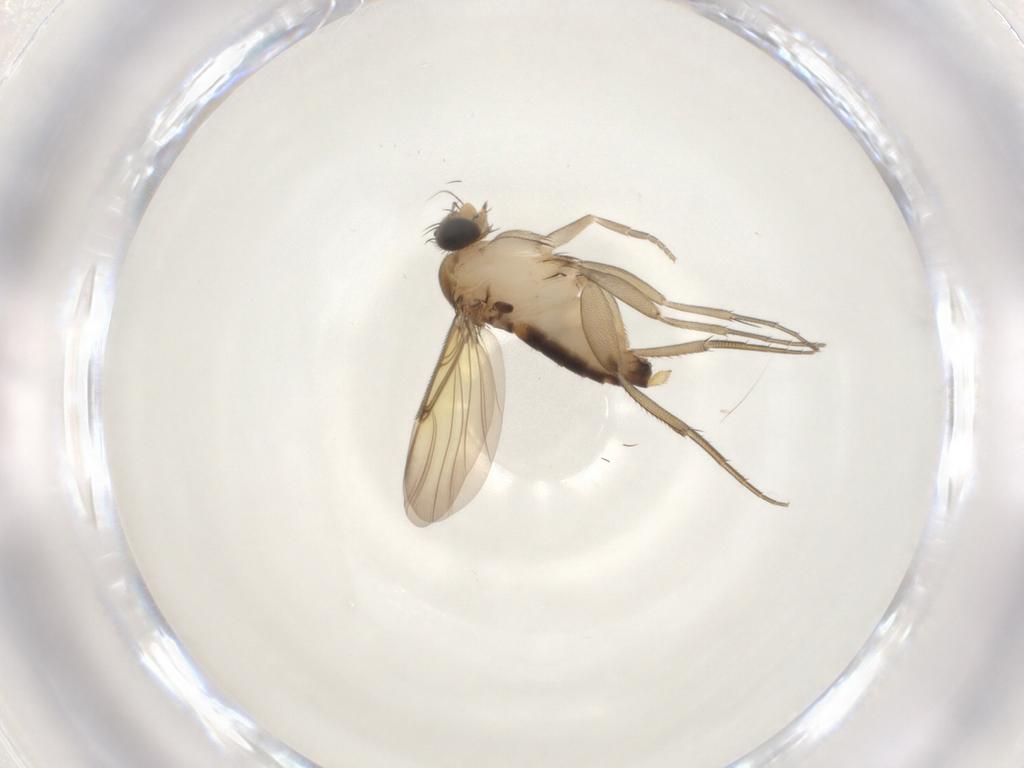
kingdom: Animalia
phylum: Arthropoda
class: Insecta
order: Diptera
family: Phoridae
